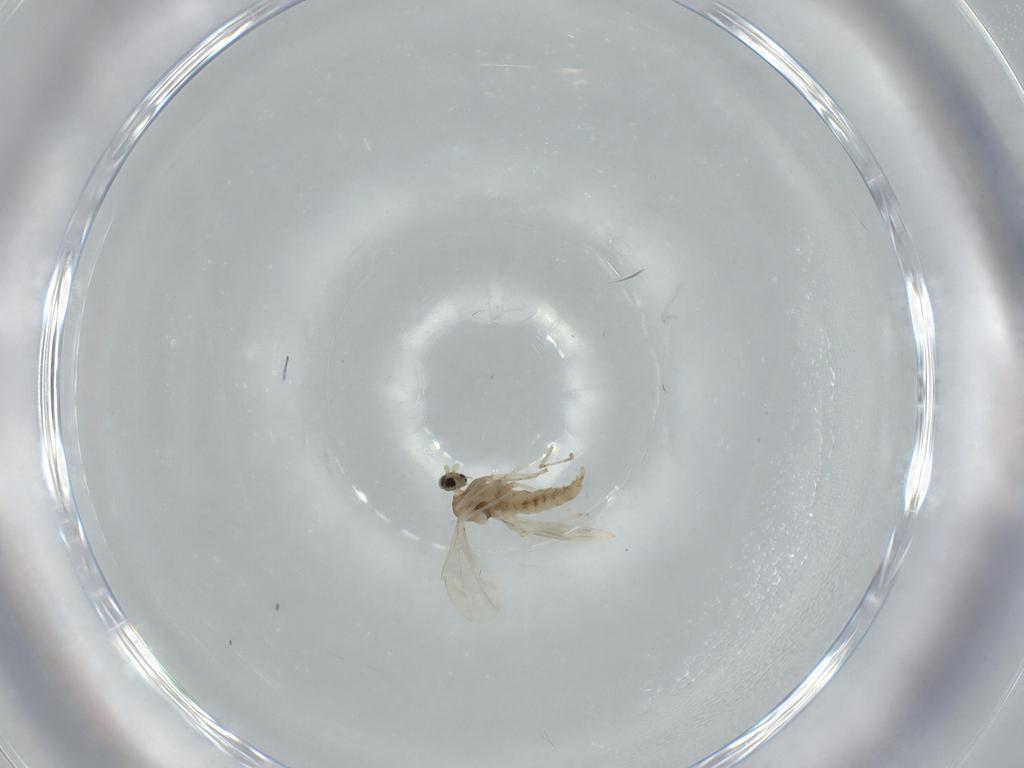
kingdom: Animalia
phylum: Arthropoda
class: Insecta
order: Diptera
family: Cecidomyiidae
